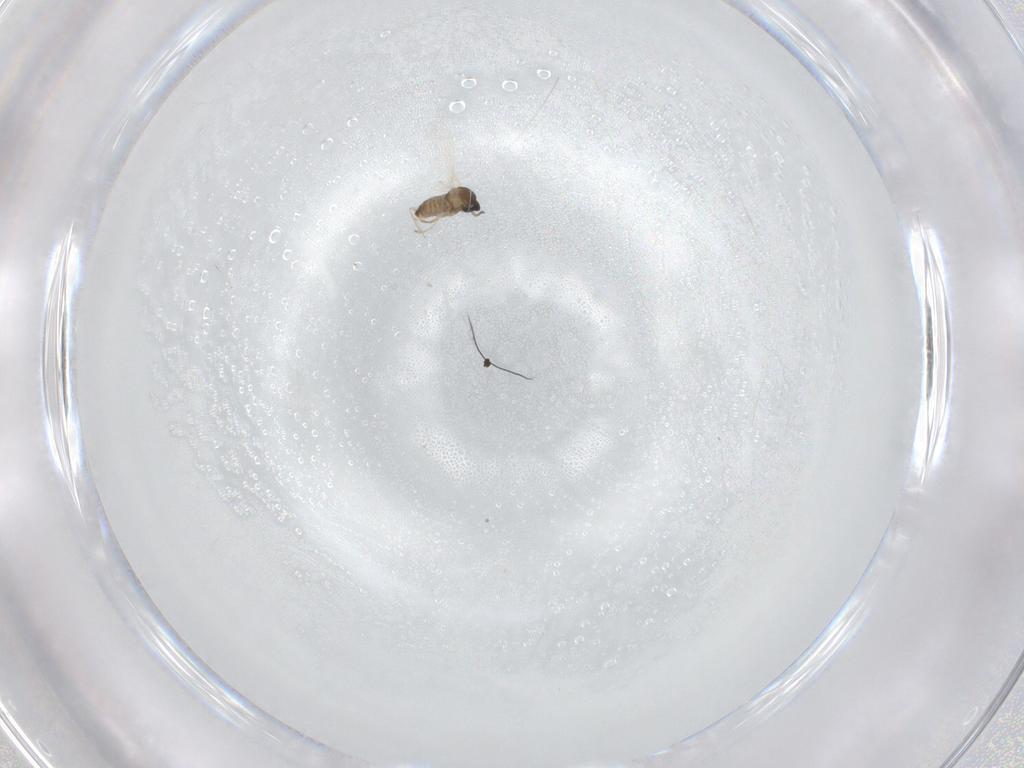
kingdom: Animalia
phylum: Arthropoda
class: Insecta
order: Diptera
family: Cecidomyiidae
